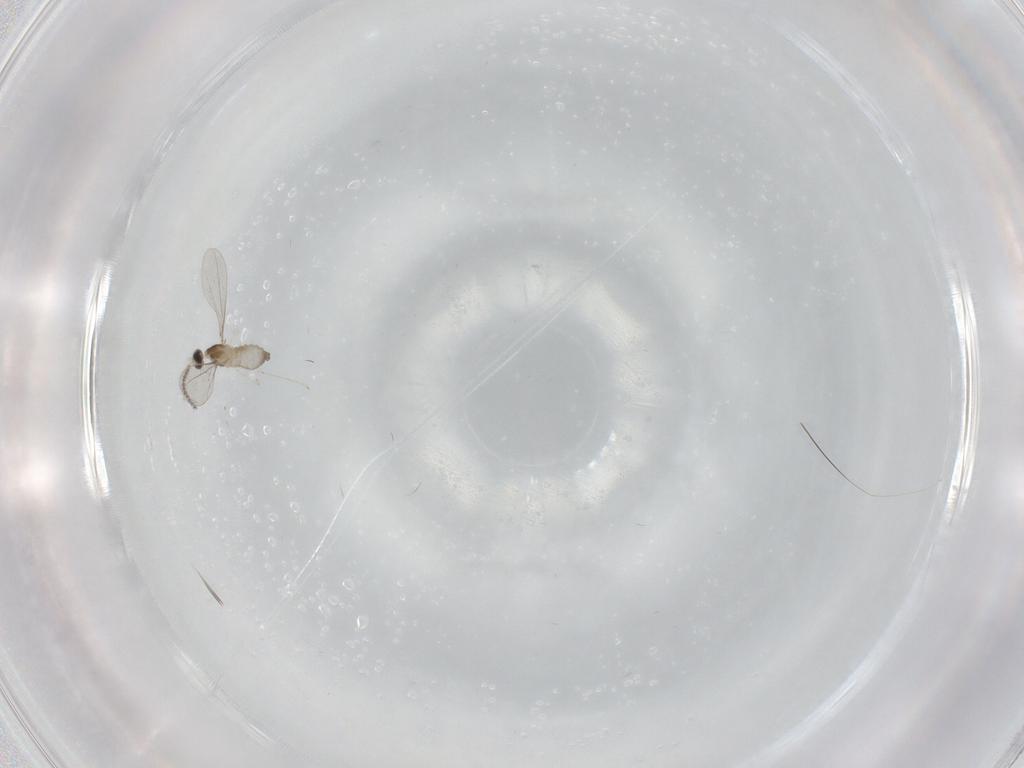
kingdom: Animalia
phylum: Arthropoda
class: Insecta
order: Diptera
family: Cecidomyiidae
